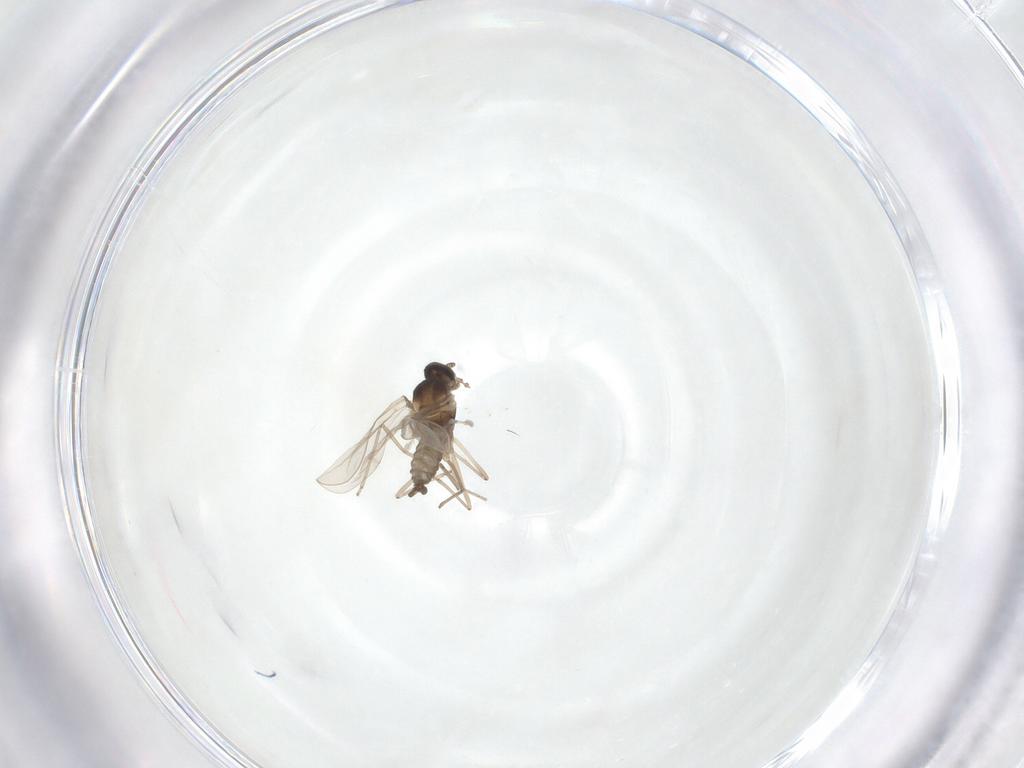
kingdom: Animalia
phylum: Arthropoda
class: Insecta
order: Diptera
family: Cecidomyiidae
